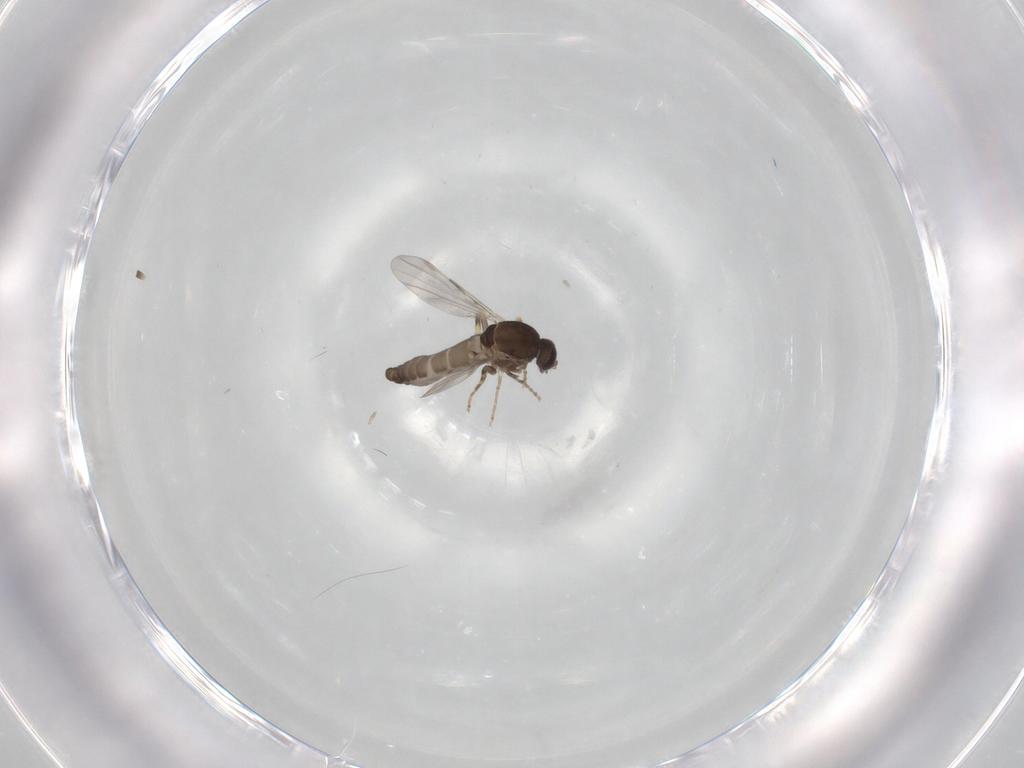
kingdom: Animalia
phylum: Arthropoda
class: Insecta
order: Diptera
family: Ceratopogonidae
